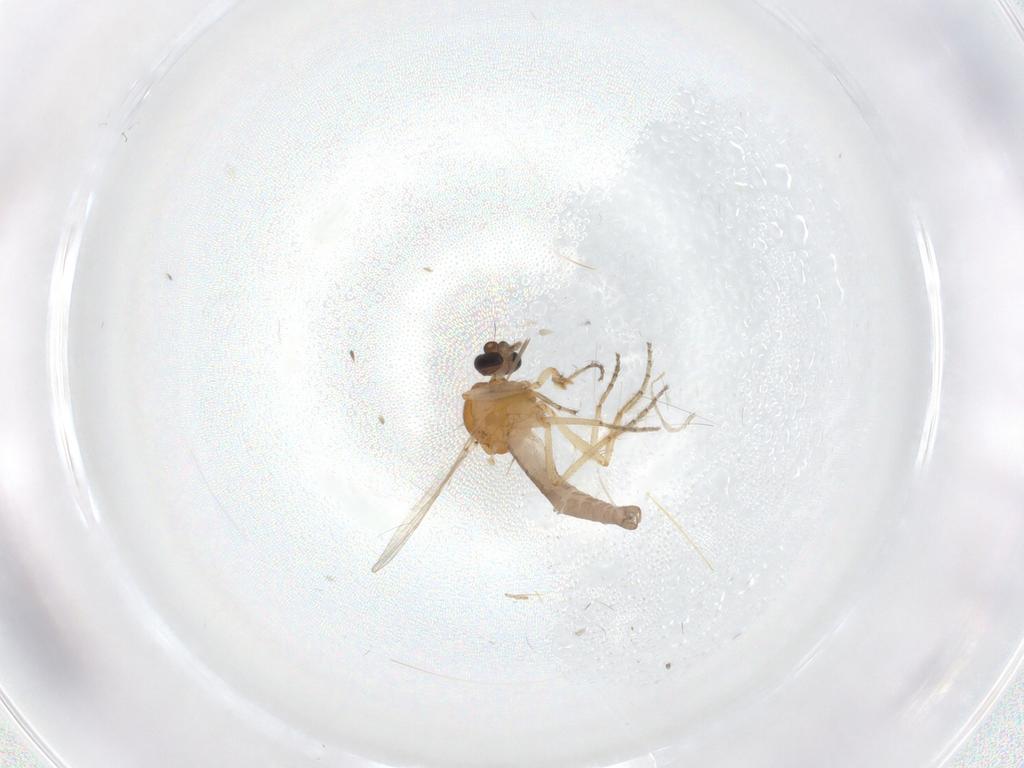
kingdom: Animalia
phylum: Arthropoda
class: Insecta
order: Diptera
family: Ceratopogonidae
